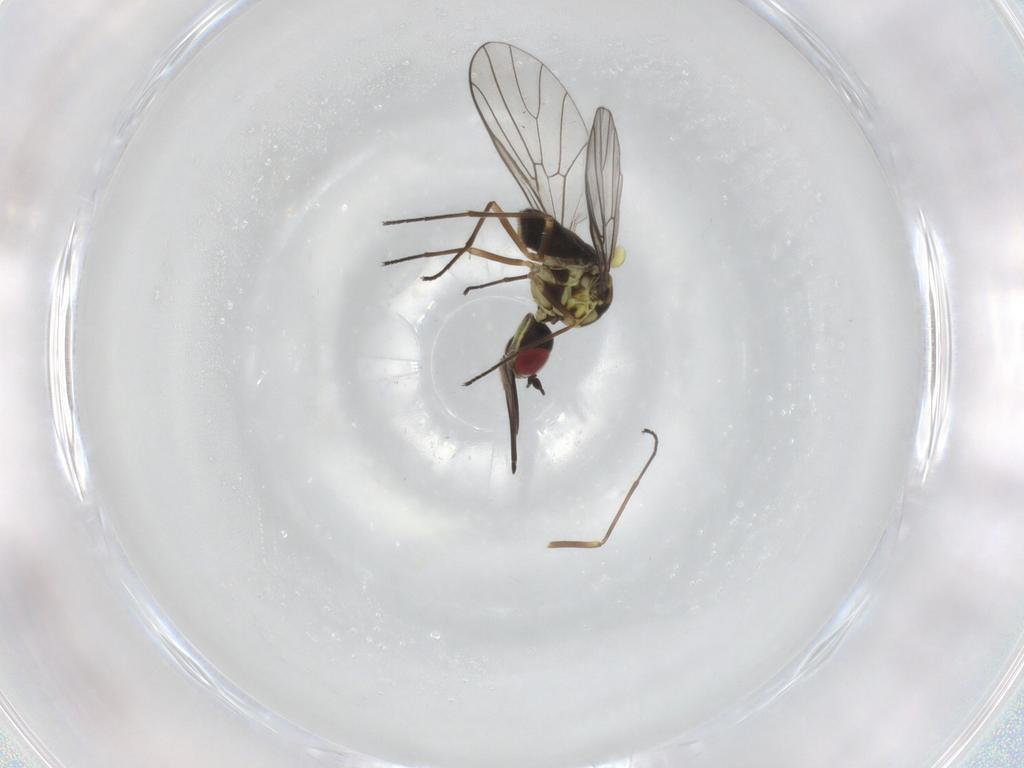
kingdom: Animalia
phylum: Arthropoda
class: Insecta
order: Diptera
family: Bombyliidae
